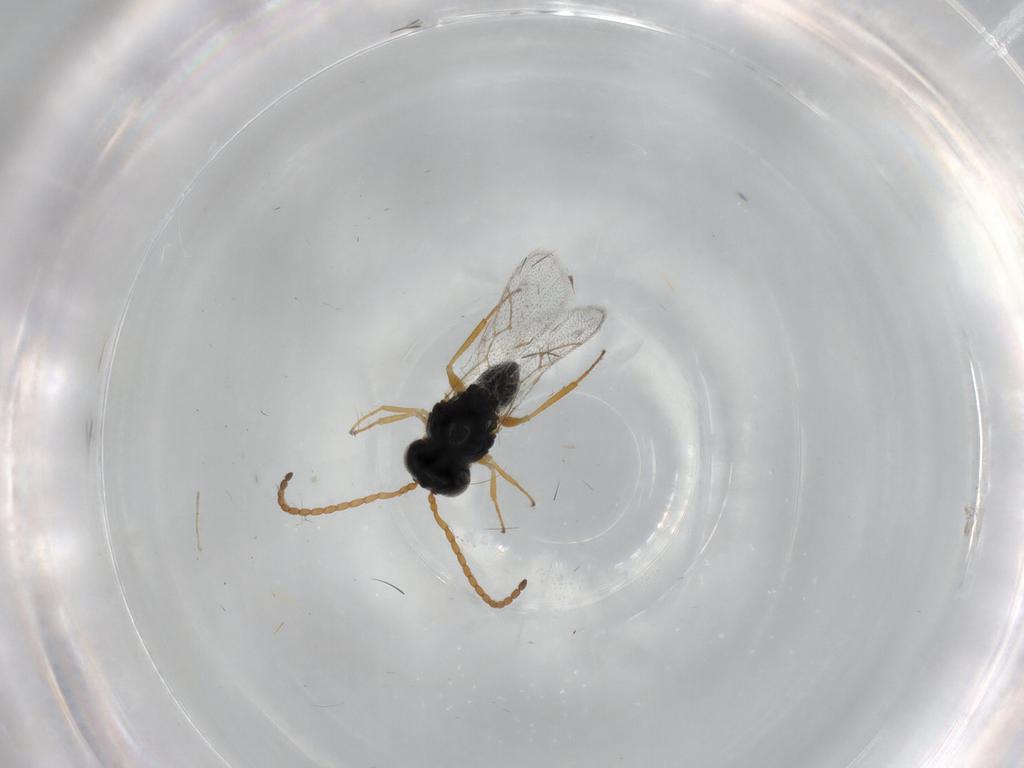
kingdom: Animalia
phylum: Arthropoda
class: Insecta
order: Hymenoptera
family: Figitidae
